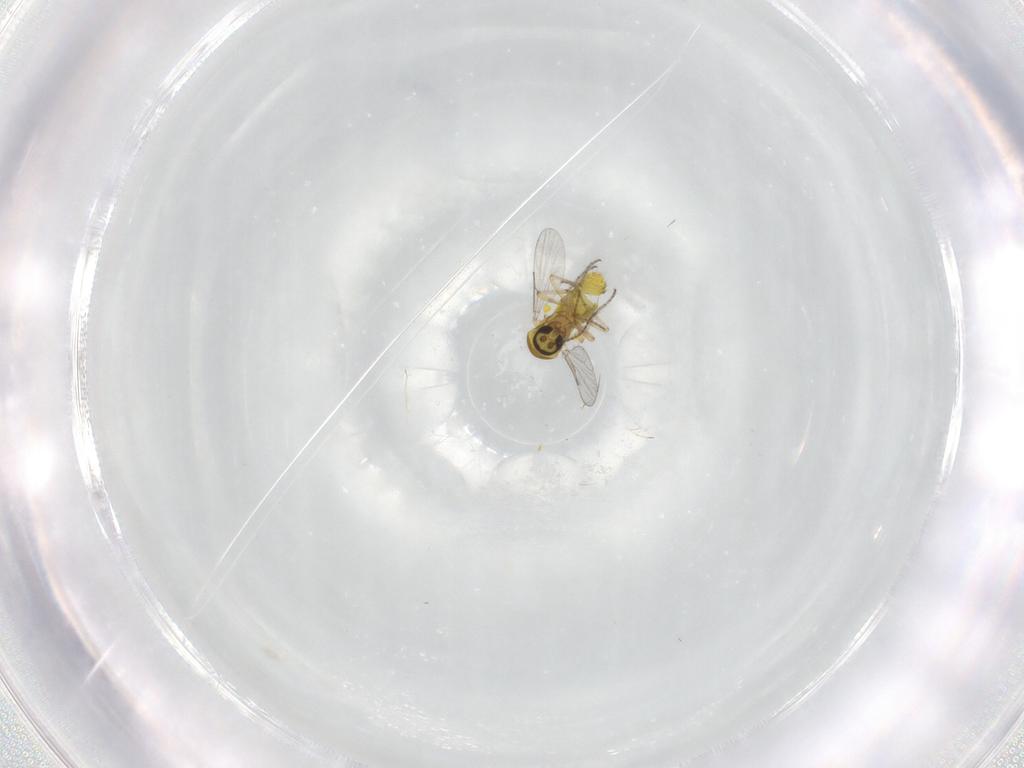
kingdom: Animalia
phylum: Arthropoda
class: Insecta
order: Diptera
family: Ceratopogonidae
